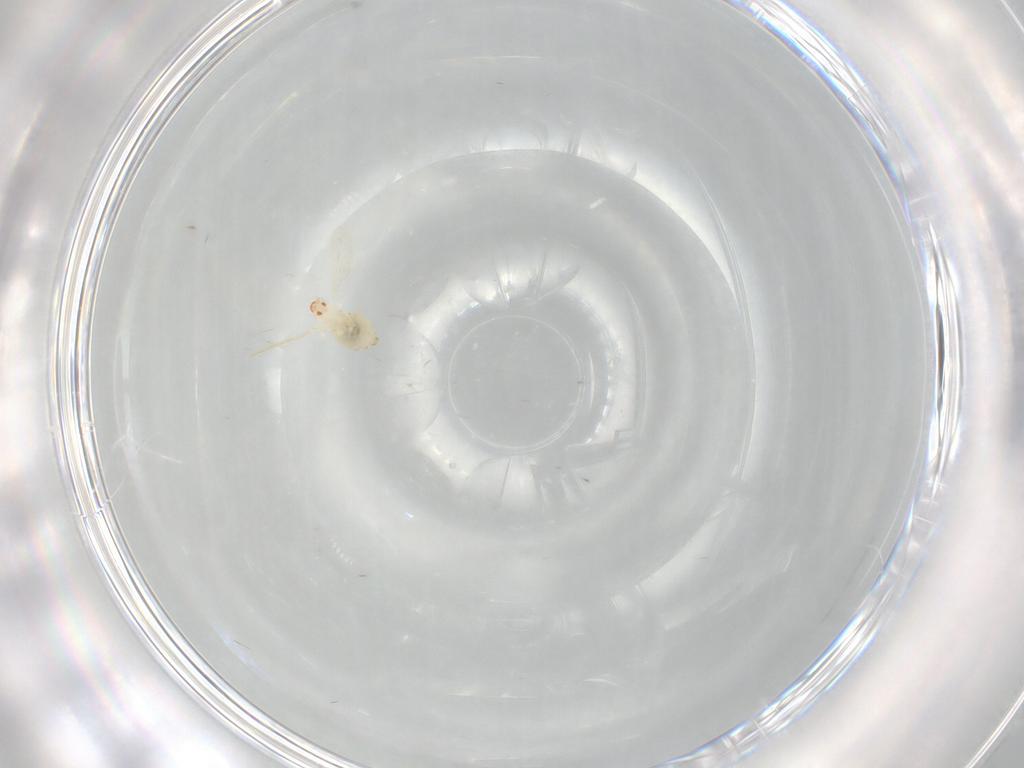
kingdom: Animalia
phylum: Arthropoda
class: Insecta
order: Diptera
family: Cecidomyiidae
